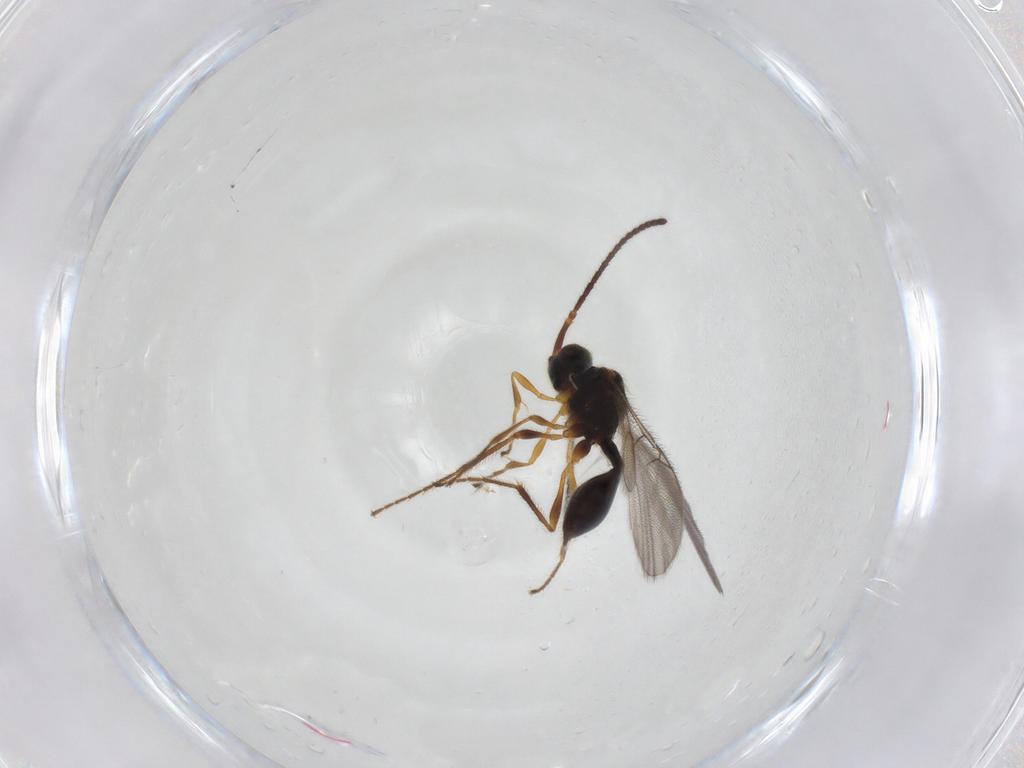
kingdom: Animalia
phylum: Arthropoda
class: Insecta
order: Hymenoptera
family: Diapriidae
